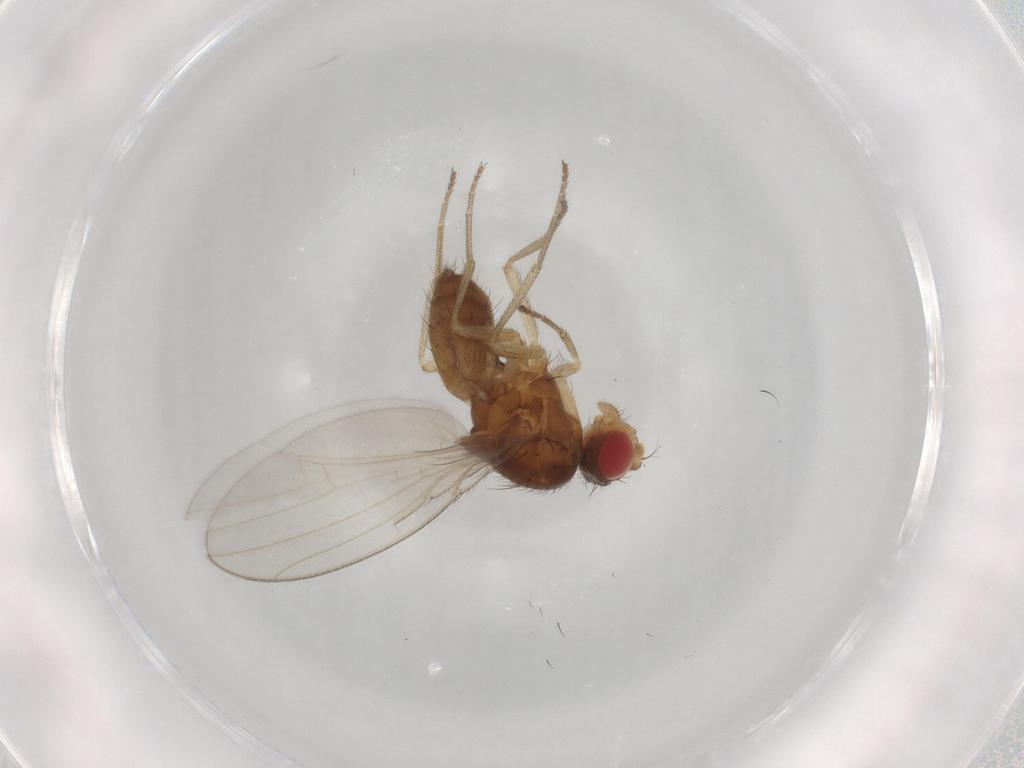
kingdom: Animalia
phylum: Arthropoda
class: Insecta
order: Diptera
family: Drosophilidae
